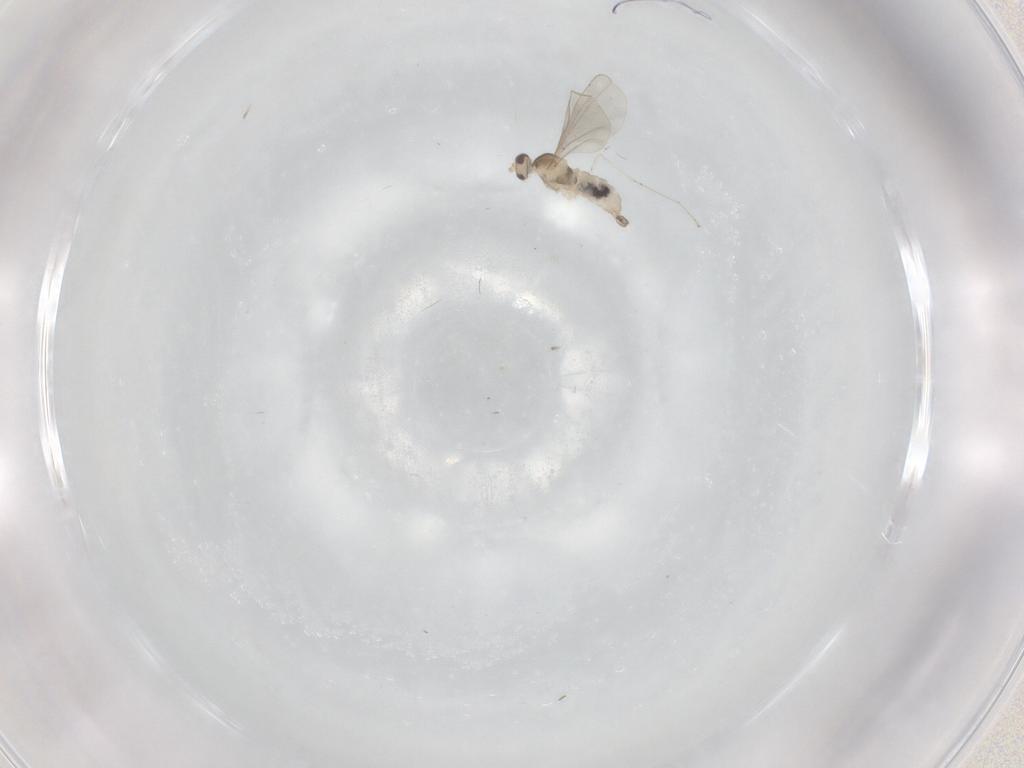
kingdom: Animalia
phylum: Arthropoda
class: Insecta
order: Diptera
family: Cecidomyiidae
